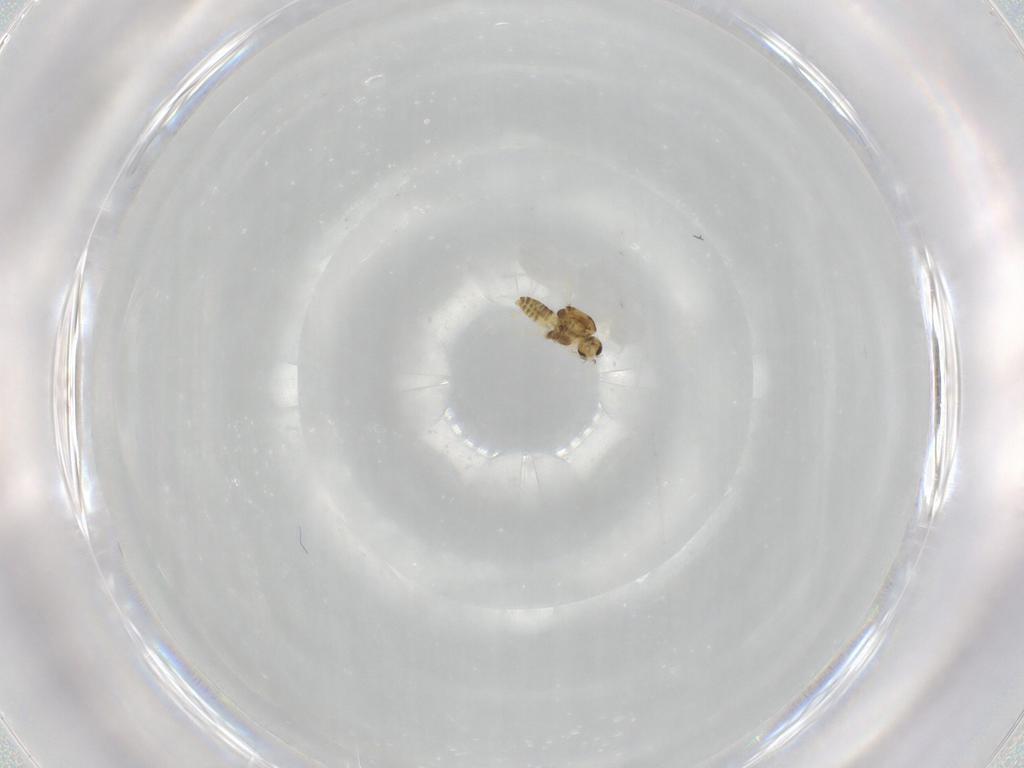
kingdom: Animalia
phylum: Arthropoda
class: Insecta
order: Diptera
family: Chironomidae
